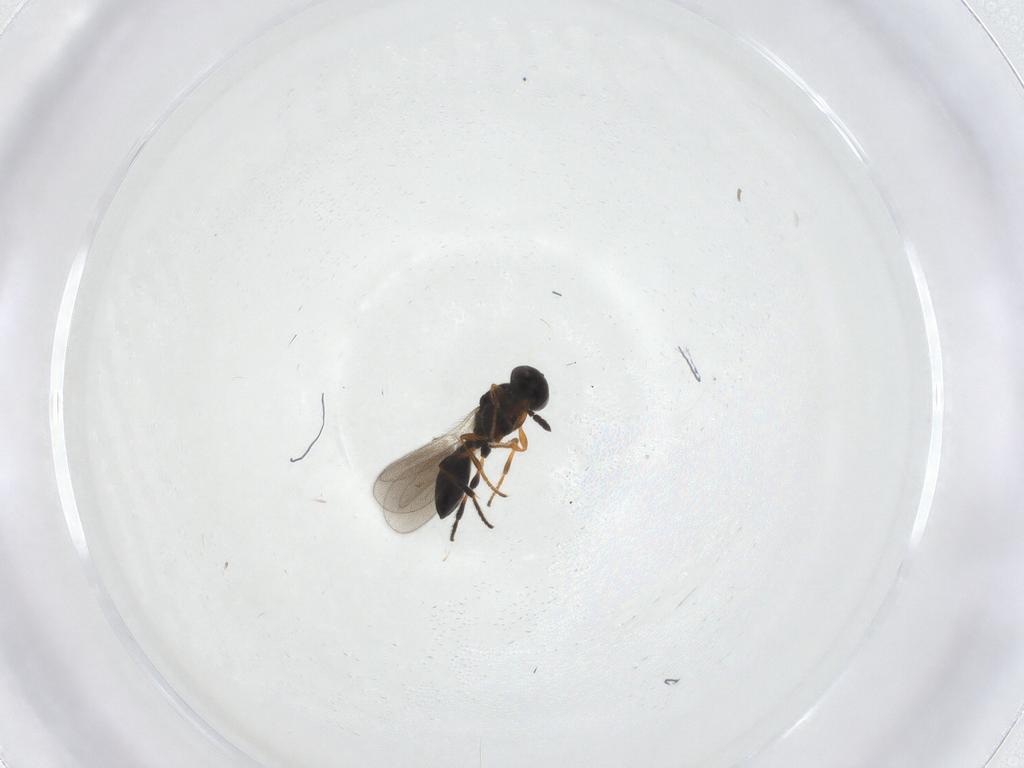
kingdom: Animalia
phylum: Arthropoda
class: Insecta
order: Hymenoptera
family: Platygastridae
